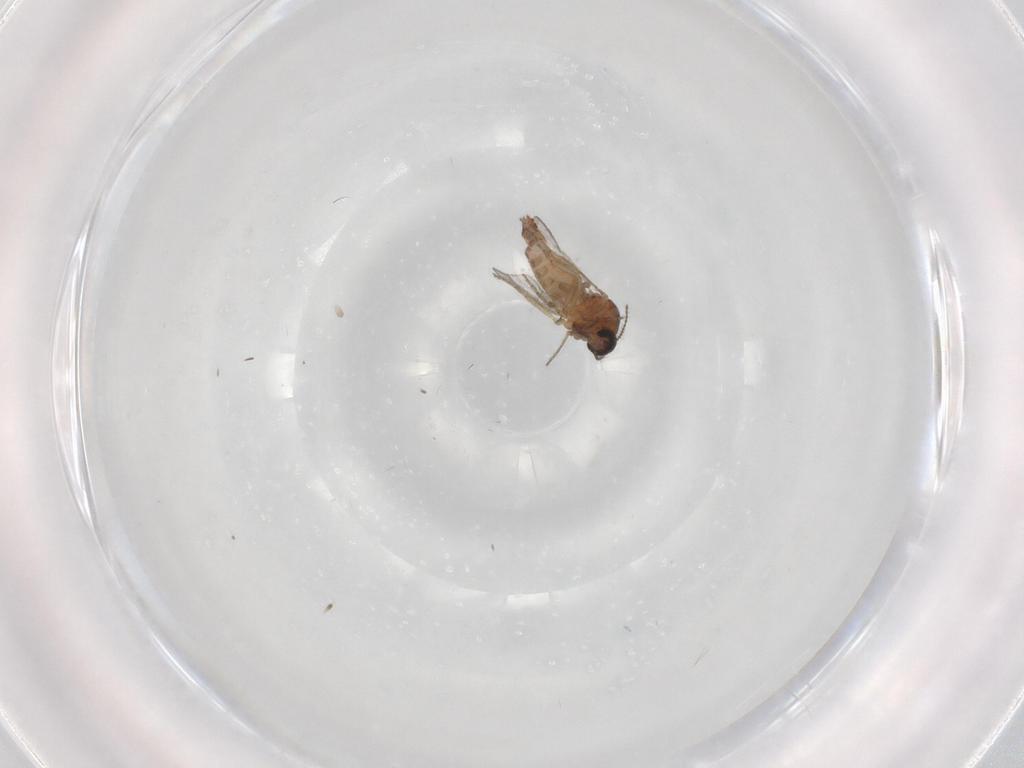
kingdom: Animalia
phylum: Arthropoda
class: Insecta
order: Diptera
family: Ceratopogonidae
